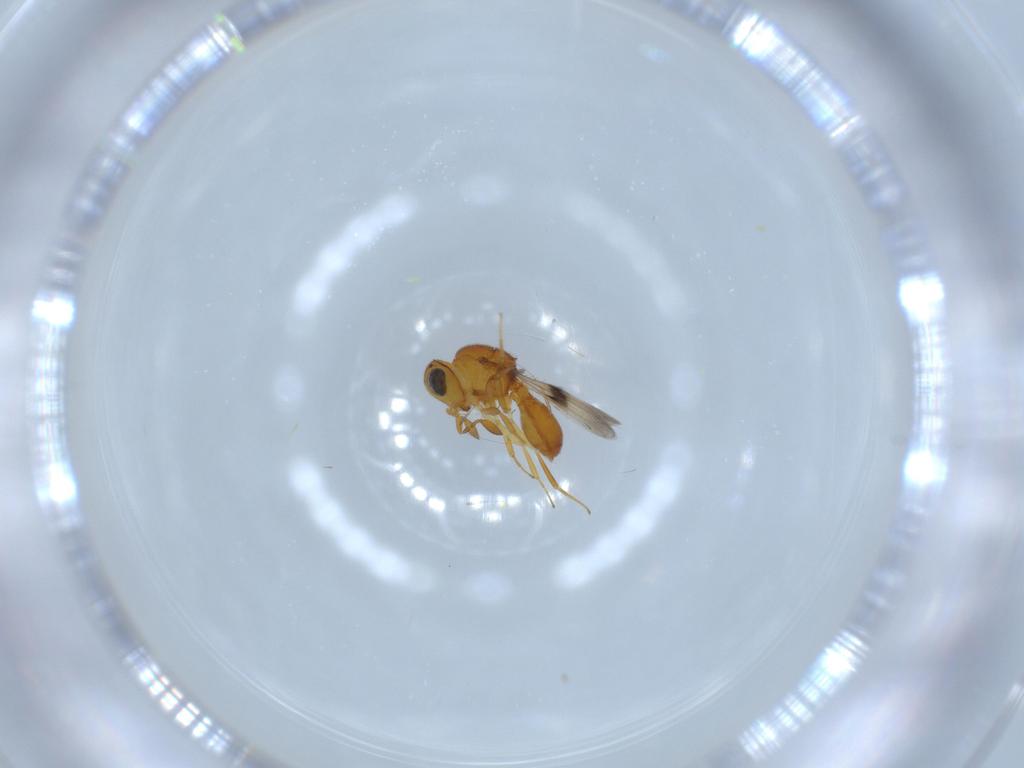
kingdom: Animalia
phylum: Arthropoda
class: Insecta
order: Hymenoptera
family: Scelionidae
